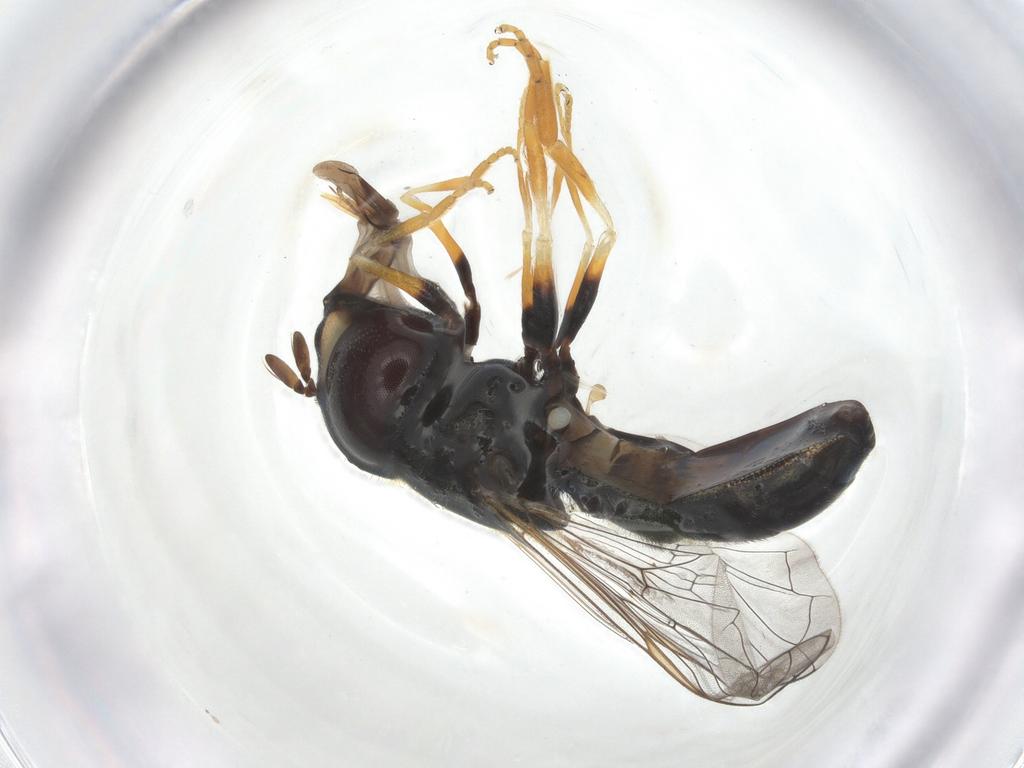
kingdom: Animalia
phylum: Arthropoda
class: Insecta
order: Diptera
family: Syrphidae
